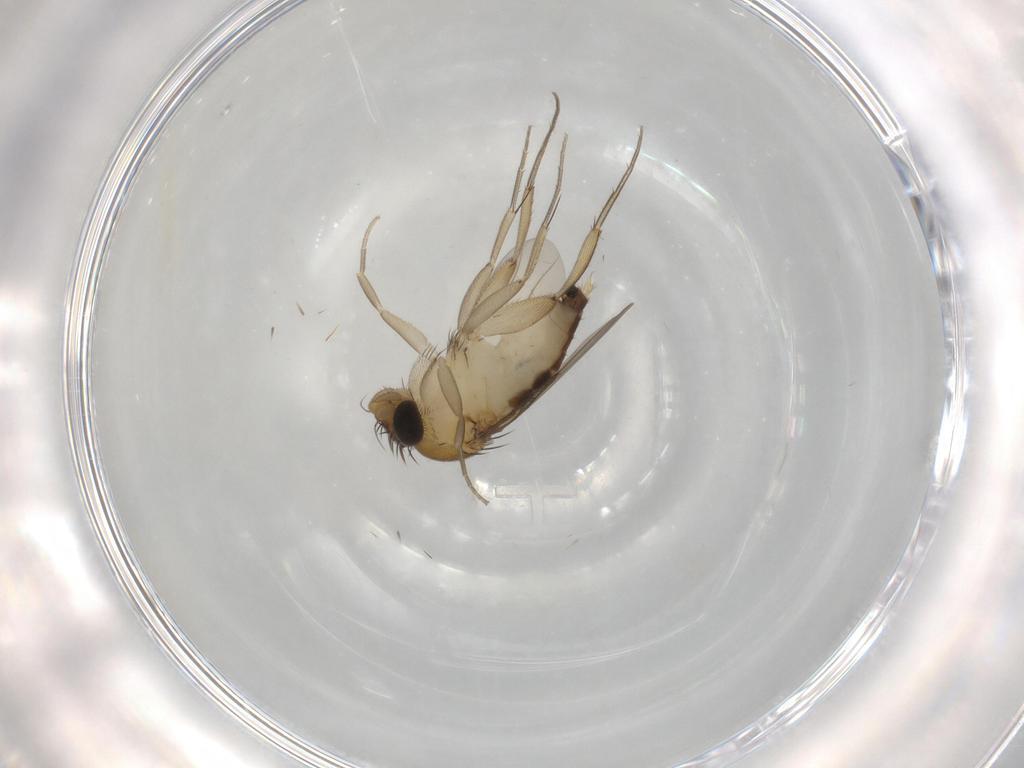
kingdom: Animalia
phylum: Arthropoda
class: Insecta
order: Diptera
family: Phoridae
